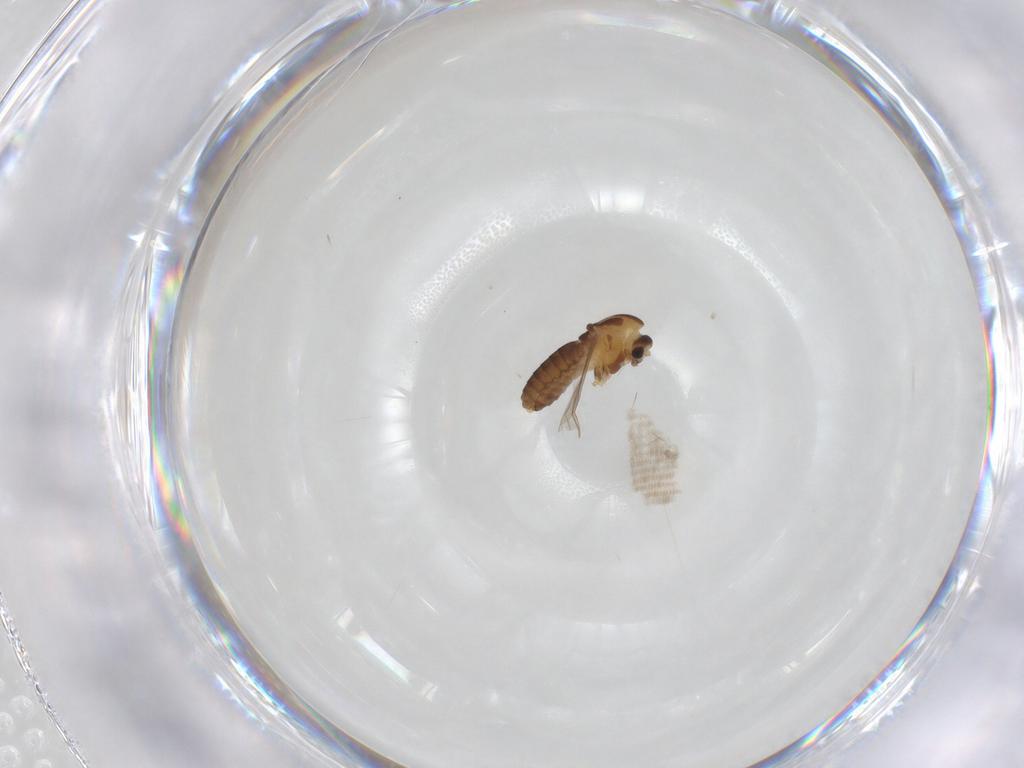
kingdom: Animalia
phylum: Arthropoda
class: Insecta
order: Diptera
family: Chironomidae
